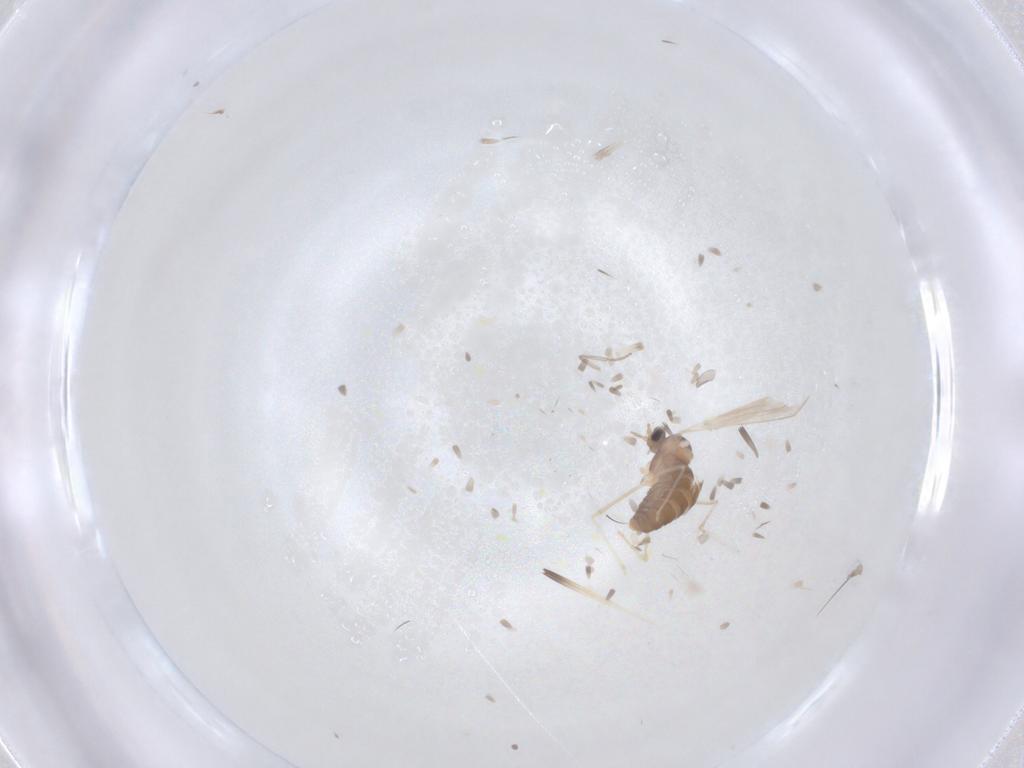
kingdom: Animalia
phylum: Arthropoda
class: Insecta
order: Diptera
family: Cecidomyiidae
